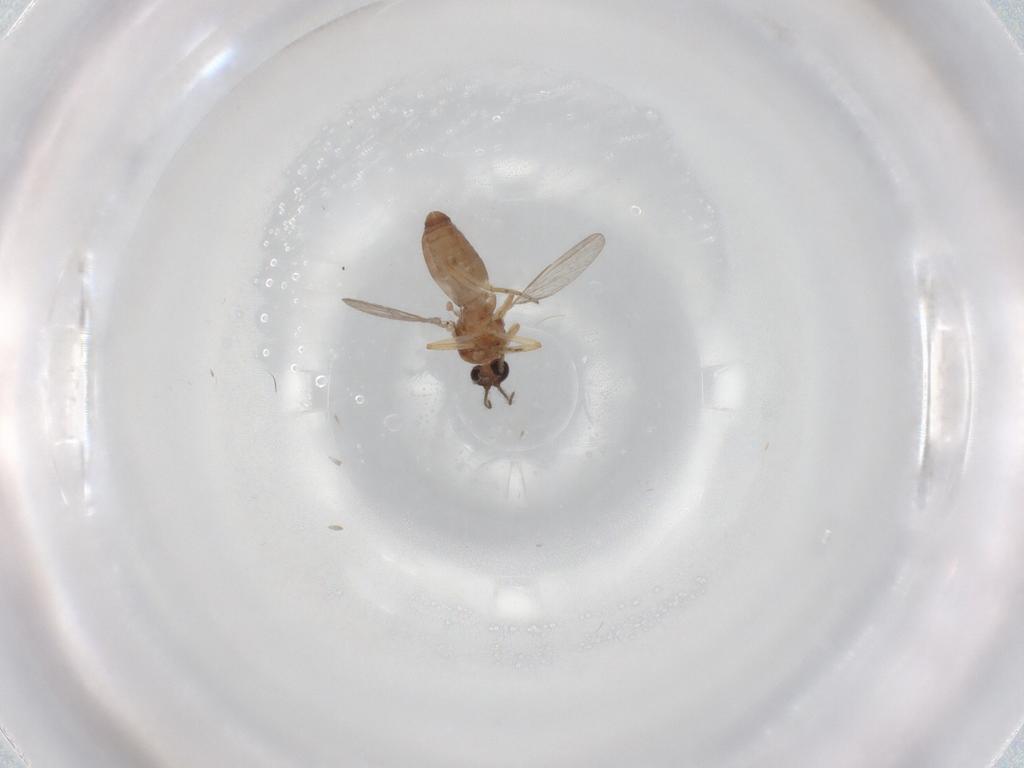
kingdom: Animalia
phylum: Arthropoda
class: Insecta
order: Diptera
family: Ceratopogonidae
